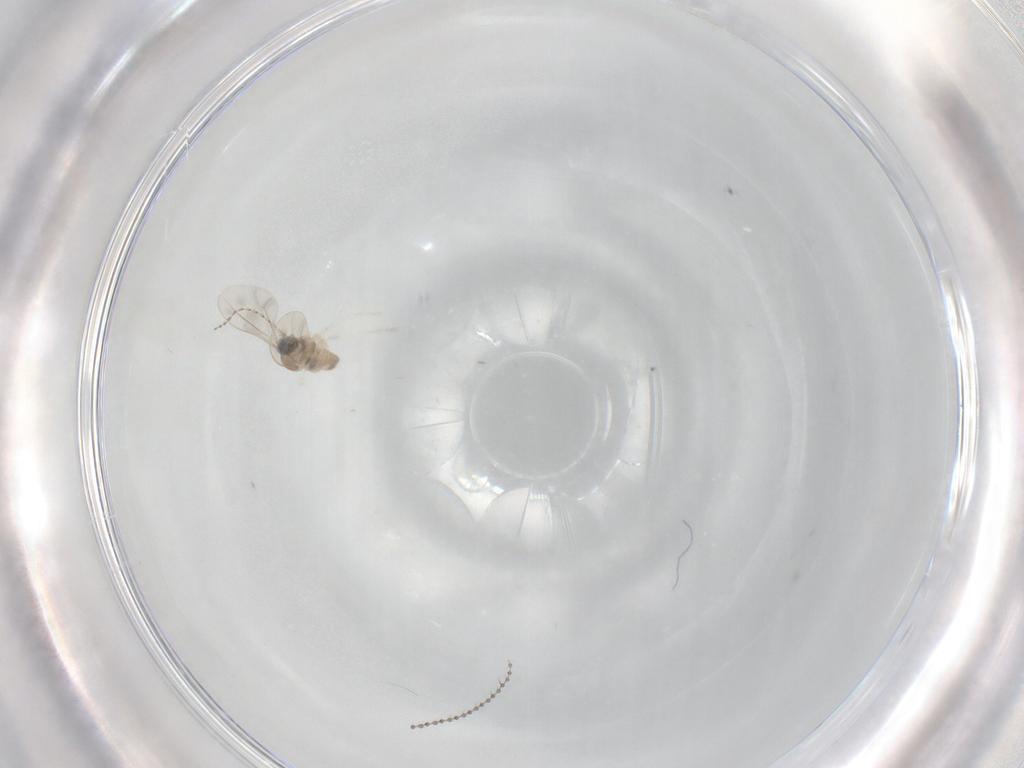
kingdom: Animalia
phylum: Arthropoda
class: Insecta
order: Diptera
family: Cecidomyiidae
